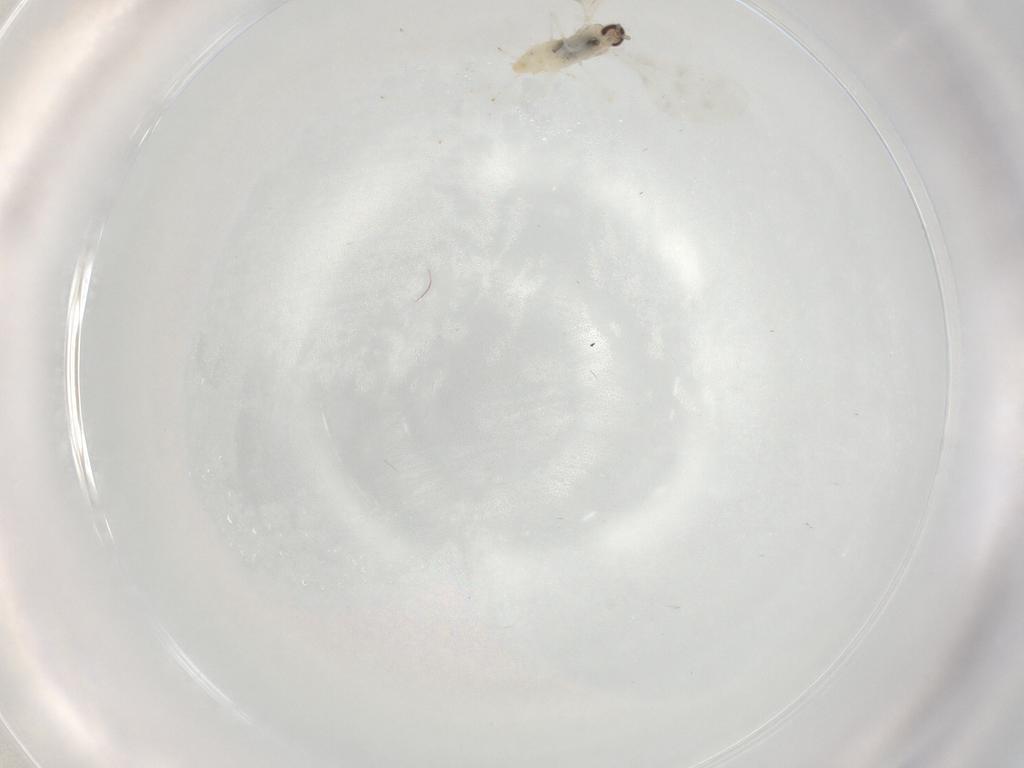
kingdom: Animalia
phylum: Arthropoda
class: Insecta
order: Diptera
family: Cecidomyiidae
